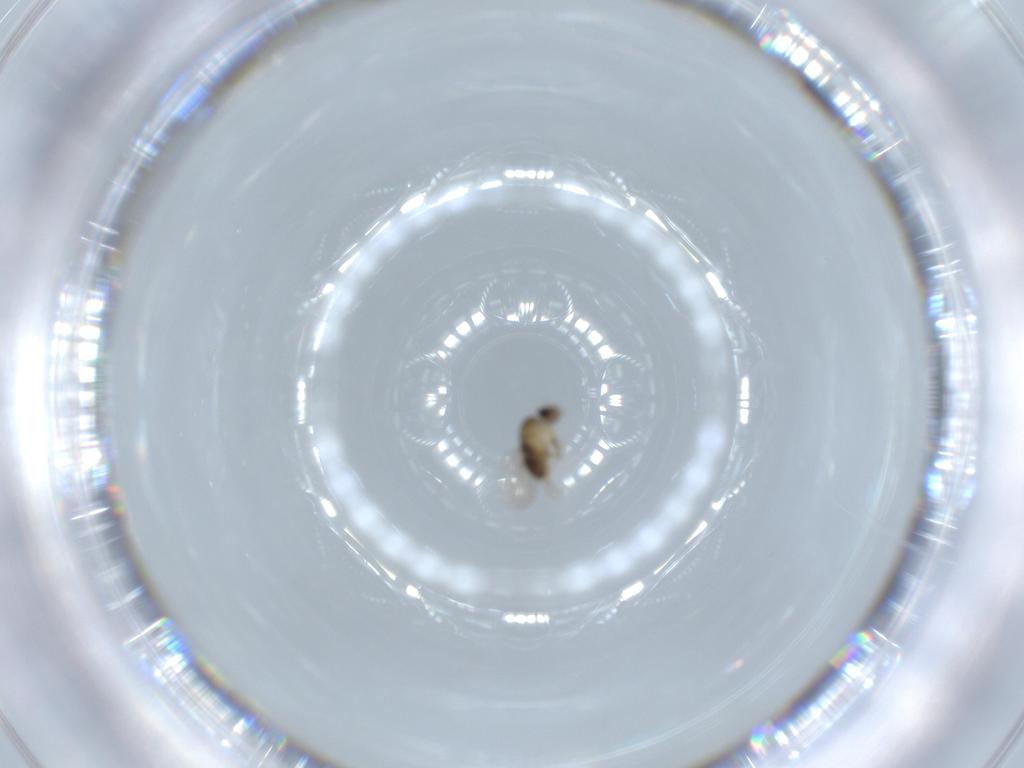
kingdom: Animalia
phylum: Arthropoda
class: Insecta
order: Diptera
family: Phoridae
